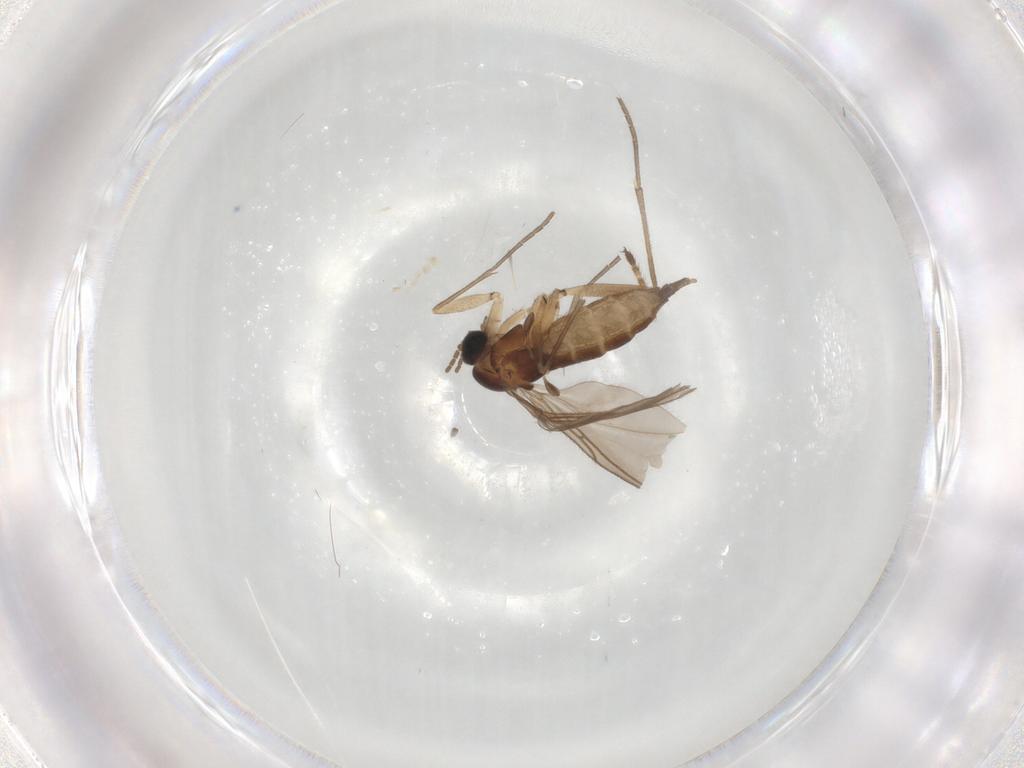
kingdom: Animalia
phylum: Arthropoda
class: Insecta
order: Diptera
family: Sciaridae
